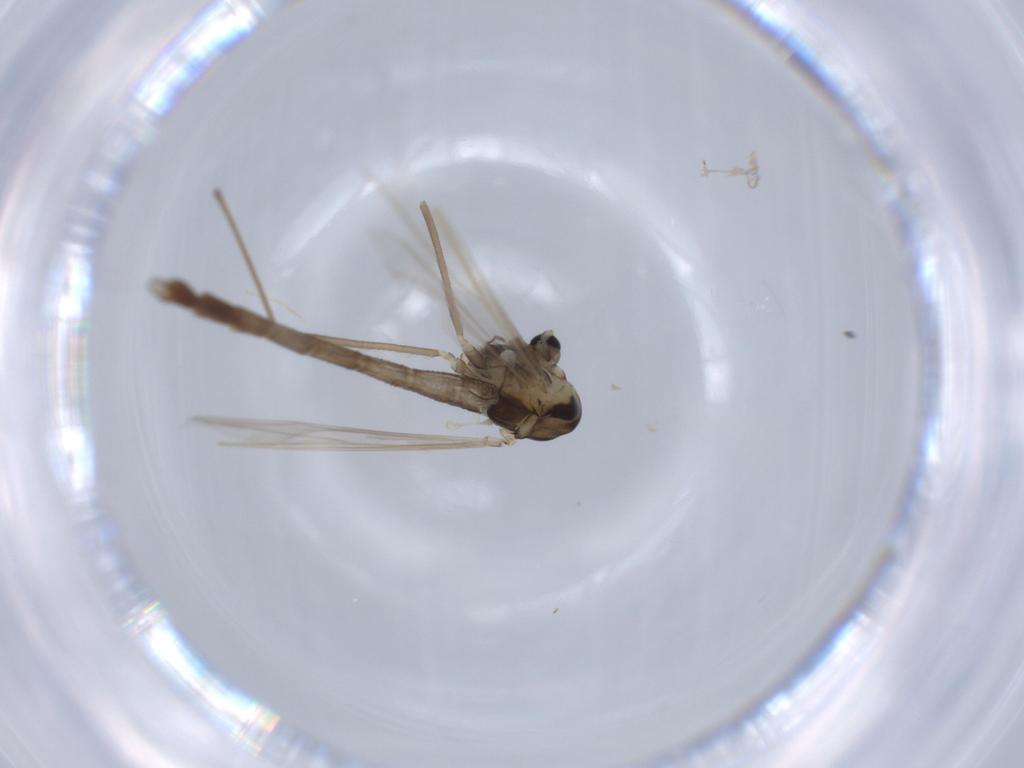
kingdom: Animalia
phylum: Arthropoda
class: Insecta
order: Diptera
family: Chironomidae
